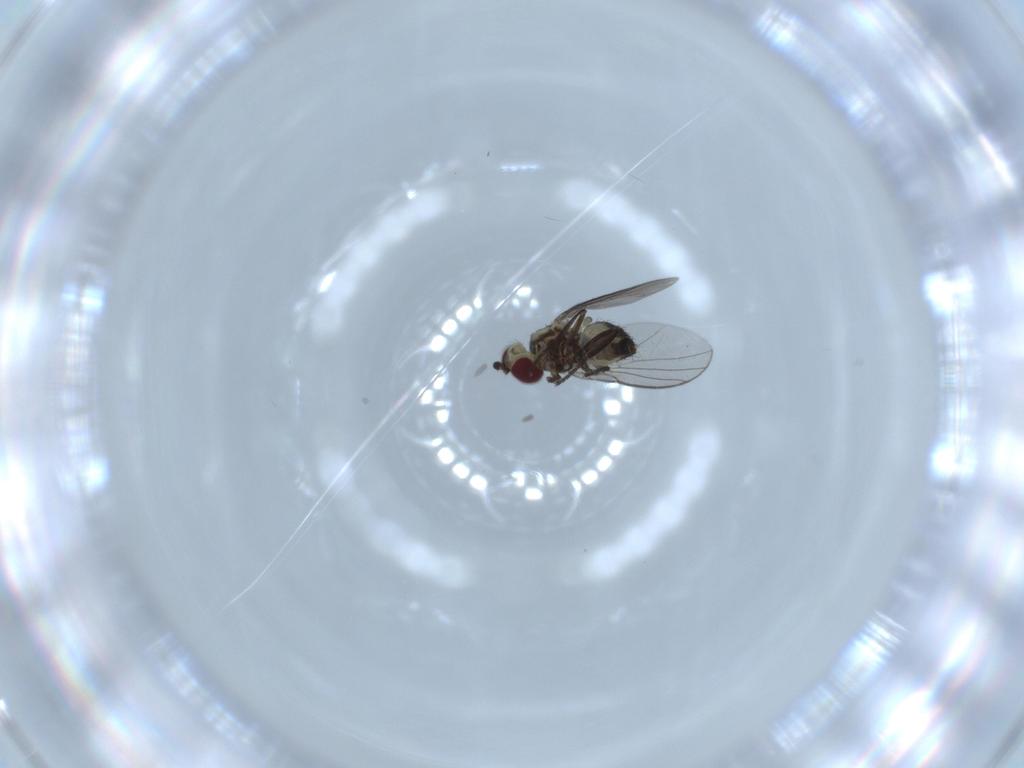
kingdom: Animalia
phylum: Arthropoda
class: Insecta
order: Diptera
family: Agromyzidae
